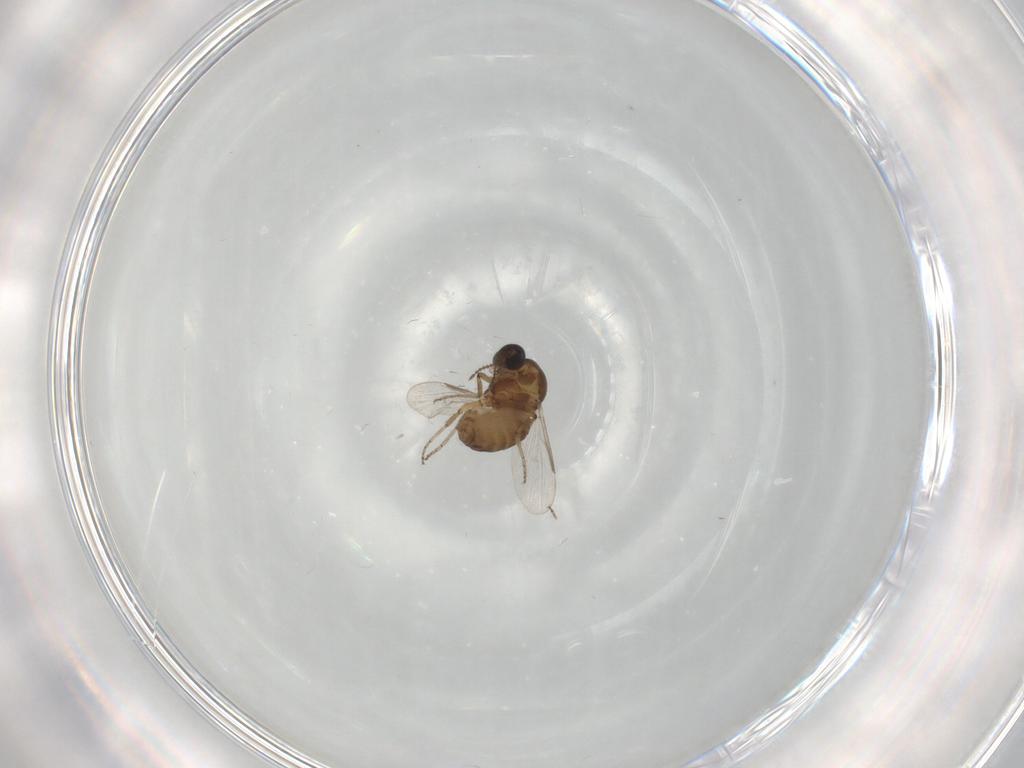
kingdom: Animalia
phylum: Arthropoda
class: Insecta
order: Diptera
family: Ceratopogonidae
